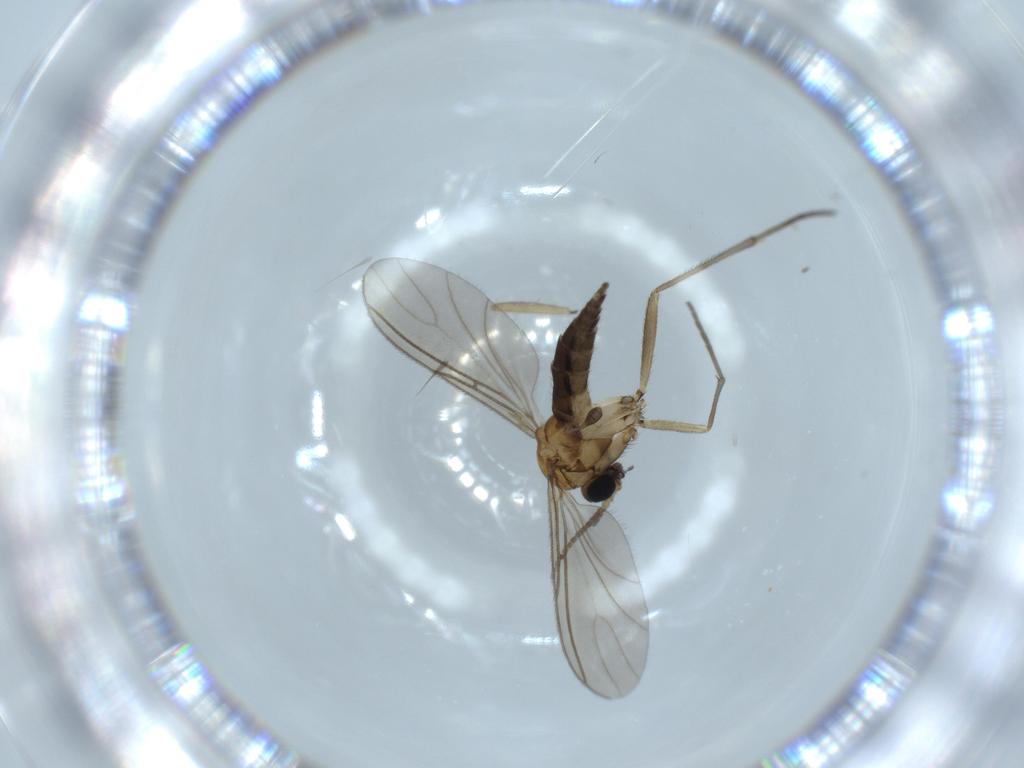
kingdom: Animalia
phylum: Arthropoda
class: Insecta
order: Diptera
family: Sciaridae
